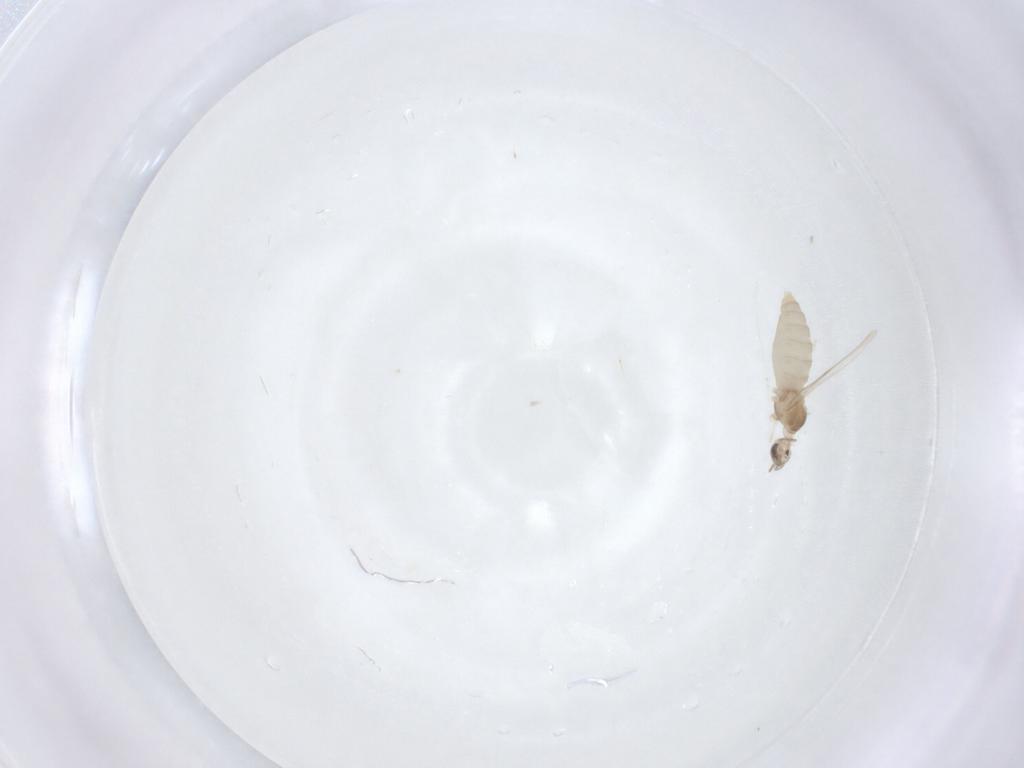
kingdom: Animalia
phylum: Arthropoda
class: Insecta
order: Diptera
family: Cecidomyiidae
